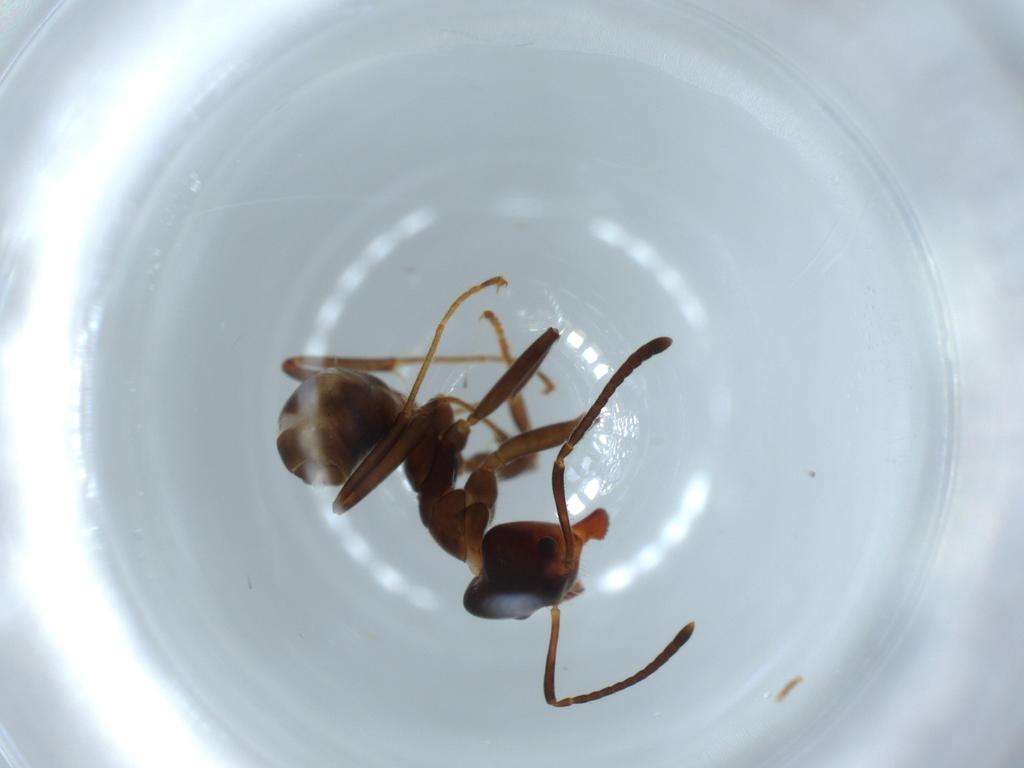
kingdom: Animalia
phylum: Arthropoda
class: Insecta
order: Hymenoptera
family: Formicidae
